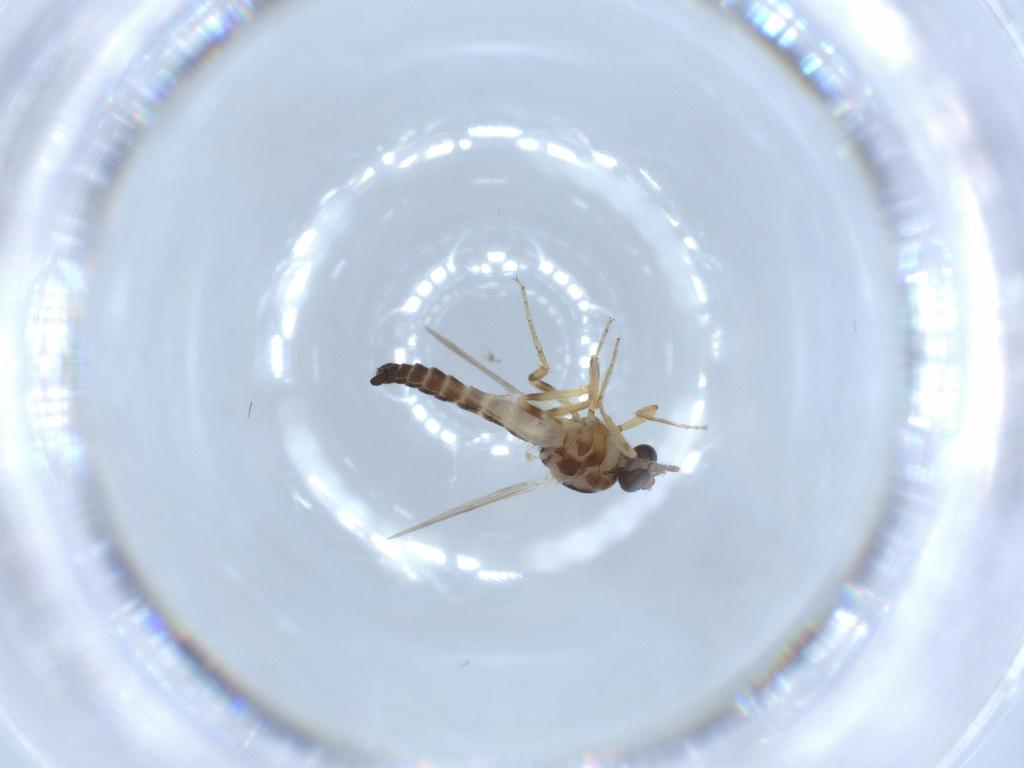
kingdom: Animalia
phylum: Arthropoda
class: Insecta
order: Diptera
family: Ceratopogonidae
